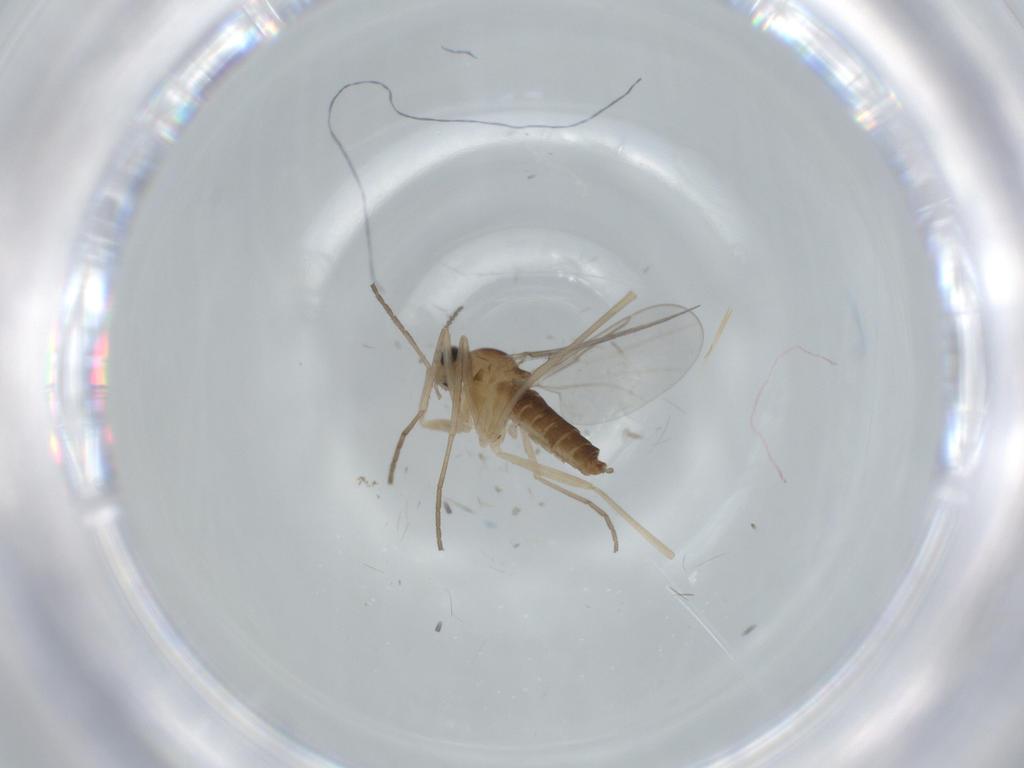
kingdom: Animalia
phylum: Arthropoda
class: Insecta
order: Diptera
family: Cecidomyiidae
